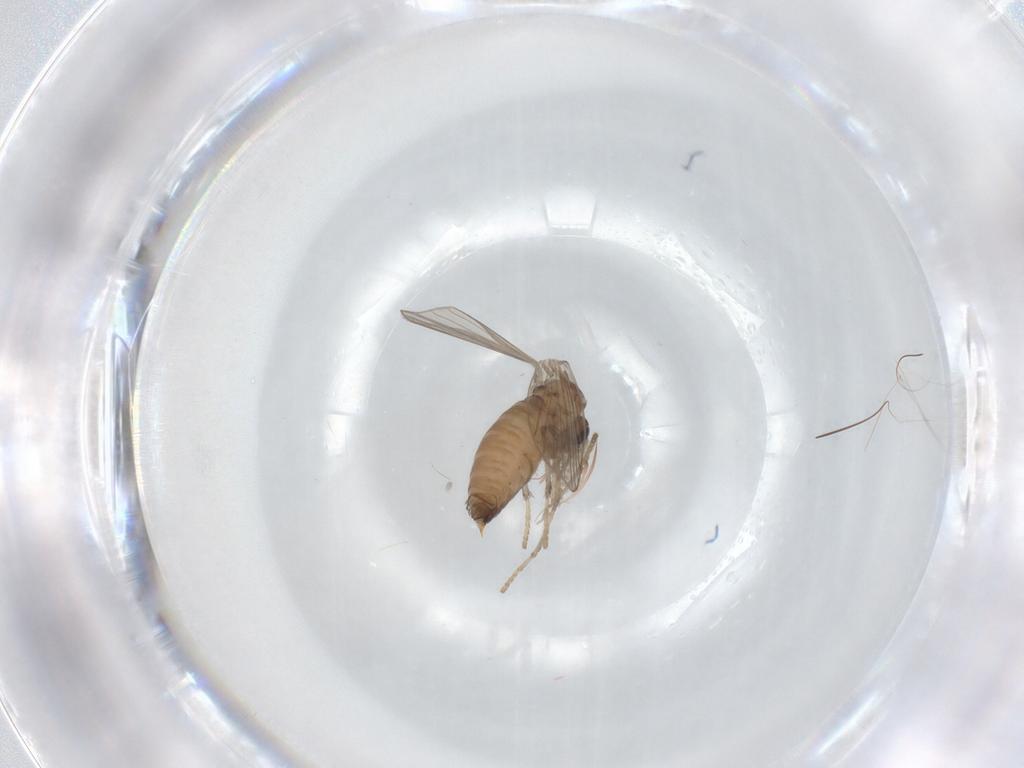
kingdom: Animalia
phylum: Arthropoda
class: Insecta
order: Diptera
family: Psychodidae
